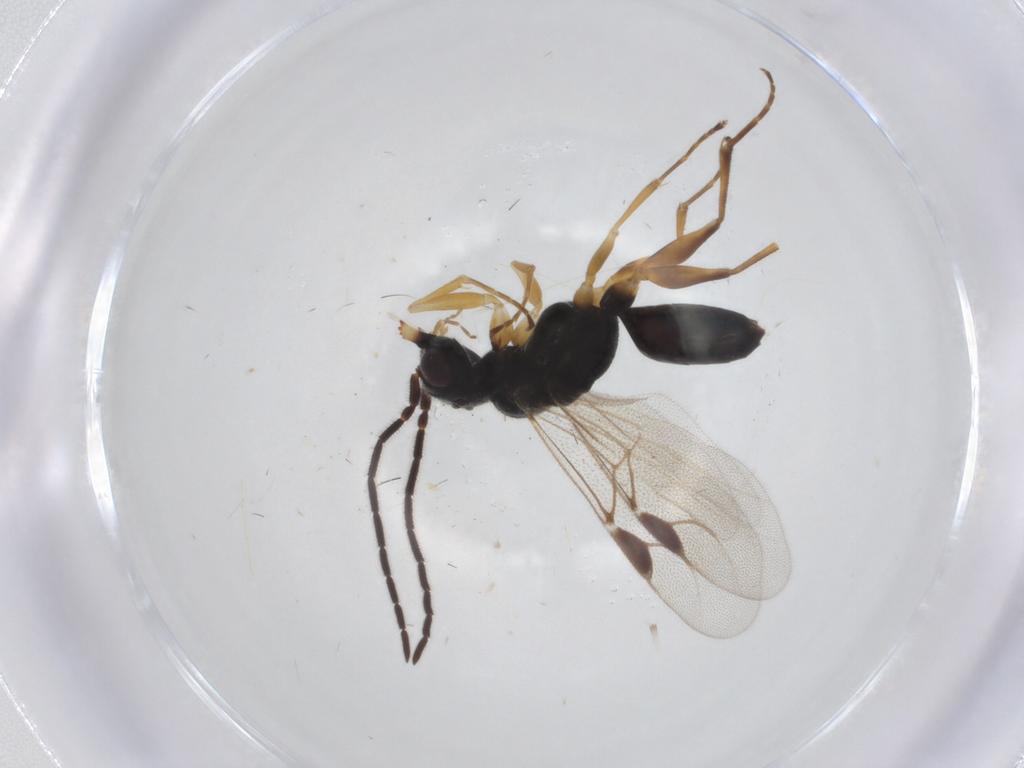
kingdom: Animalia
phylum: Arthropoda
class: Insecta
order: Hymenoptera
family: Dryinidae
